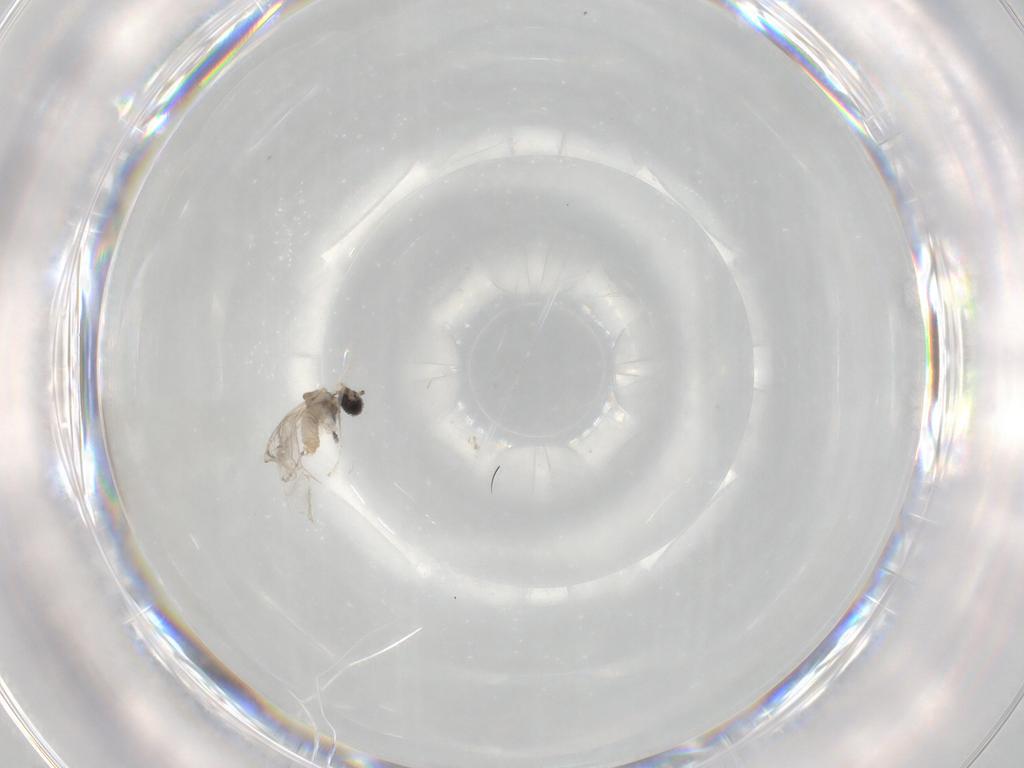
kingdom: Animalia
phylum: Arthropoda
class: Insecta
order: Diptera
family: Cecidomyiidae
